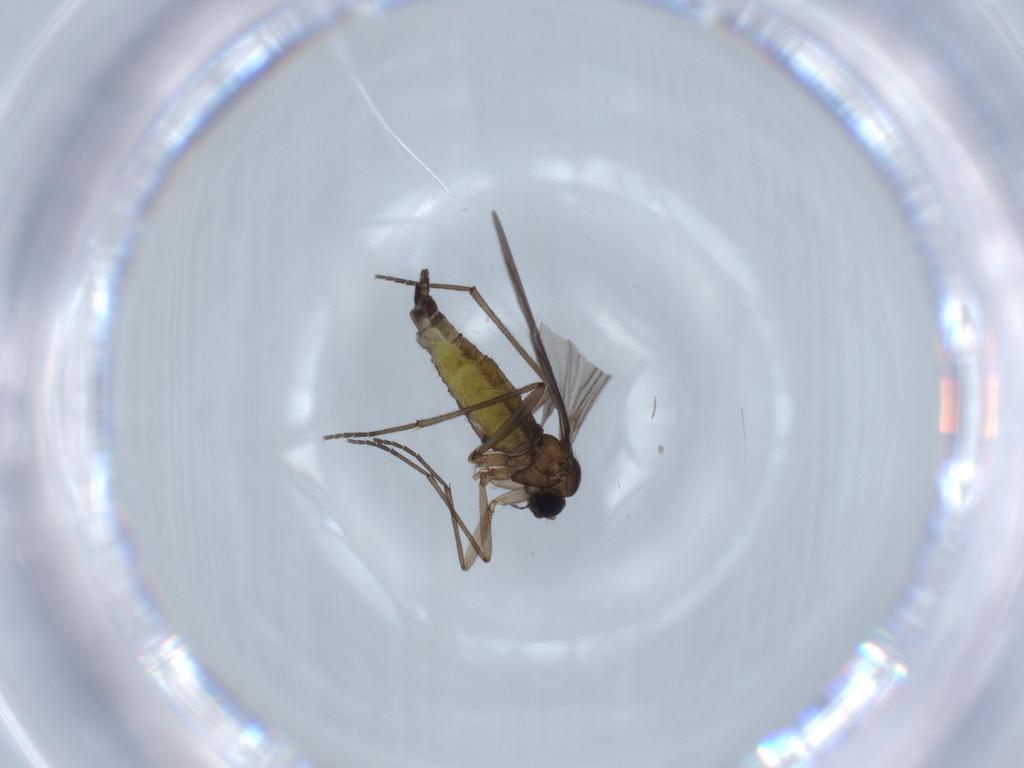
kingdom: Animalia
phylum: Arthropoda
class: Insecta
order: Diptera
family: Sciaridae
